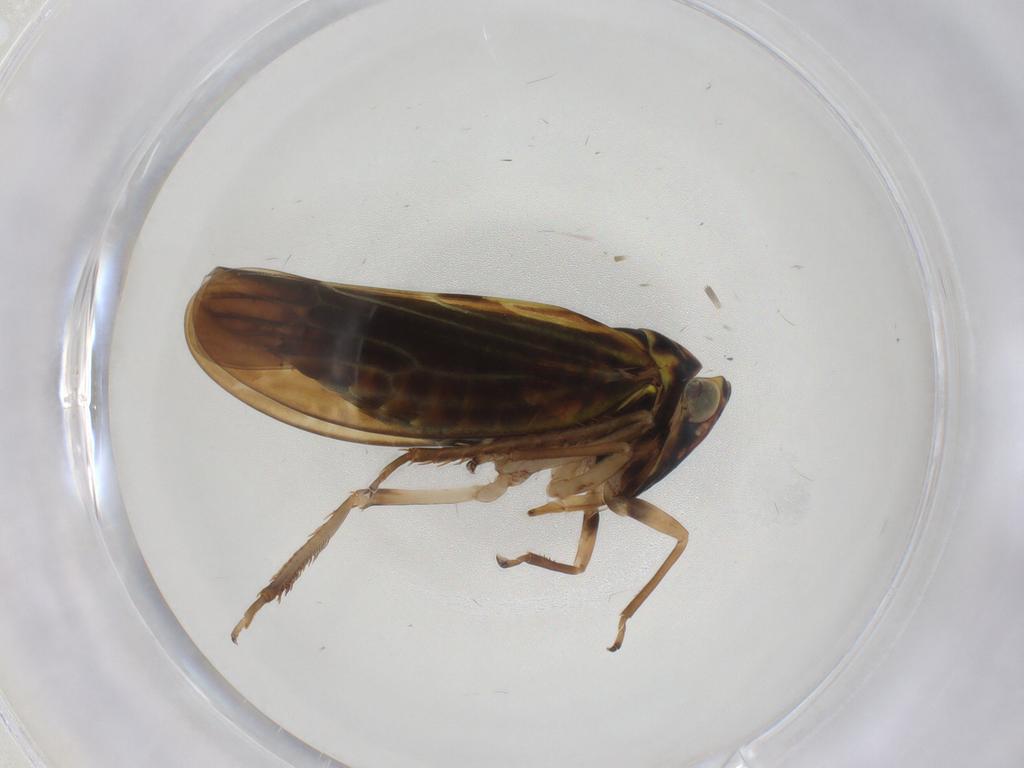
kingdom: Animalia
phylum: Arthropoda
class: Insecta
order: Hemiptera
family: Cicadellidae
